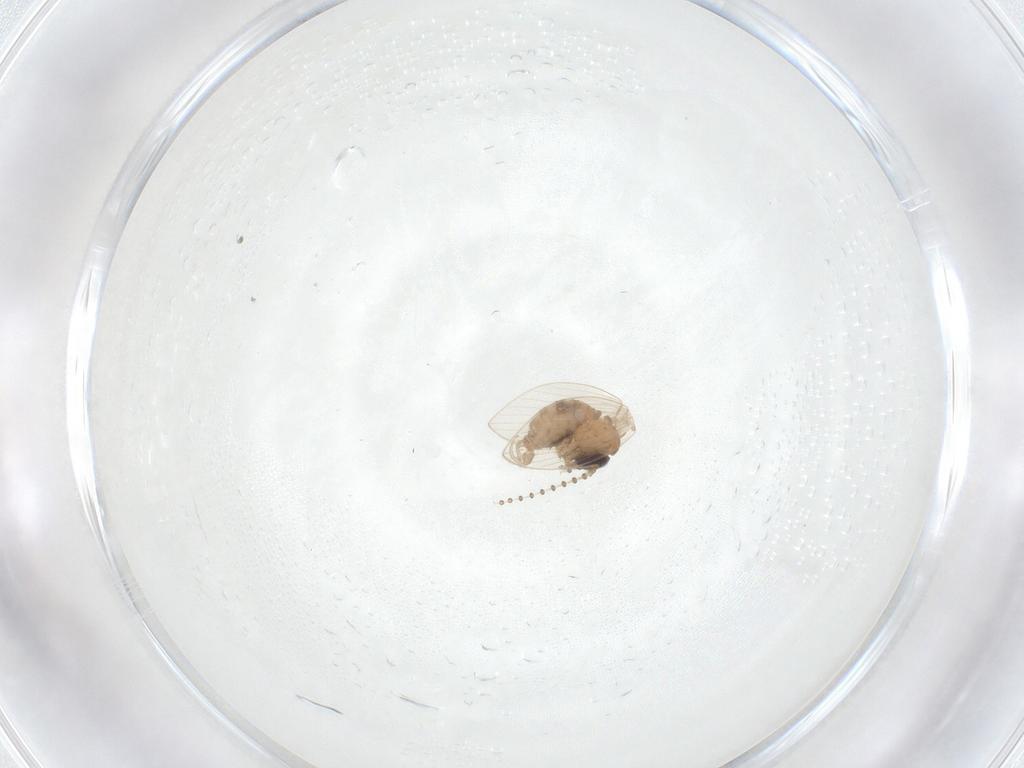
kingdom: Animalia
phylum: Arthropoda
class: Insecta
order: Diptera
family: Psychodidae
